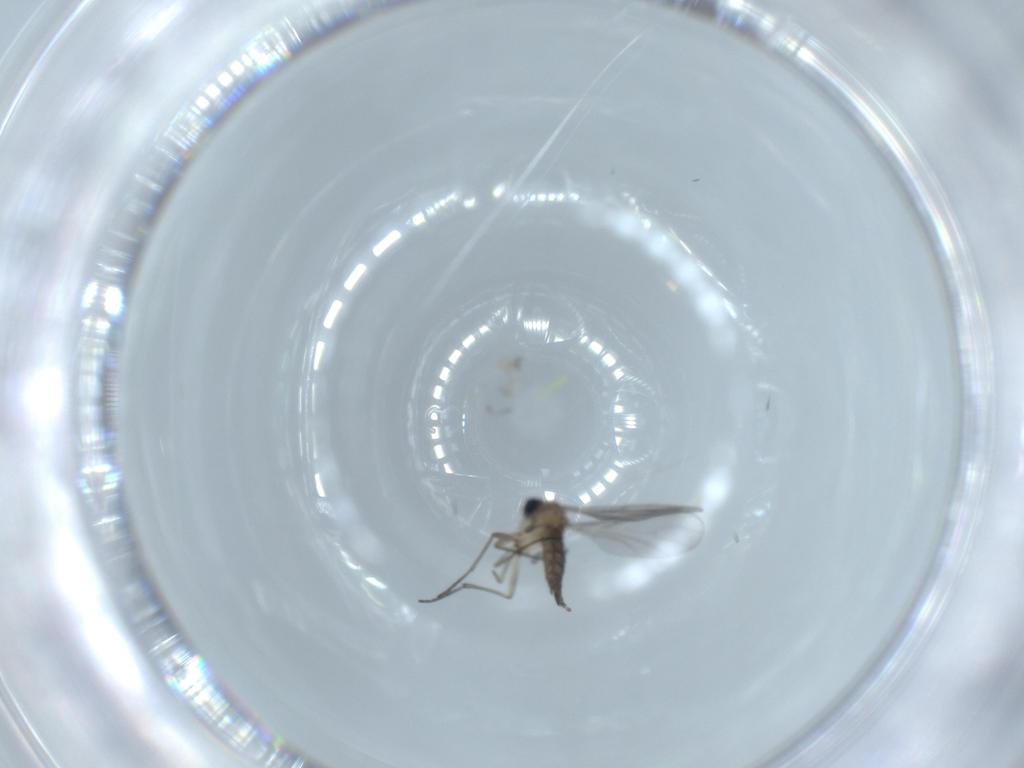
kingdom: Animalia
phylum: Arthropoda
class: Insecta
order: Diptera
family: Sciaridae
